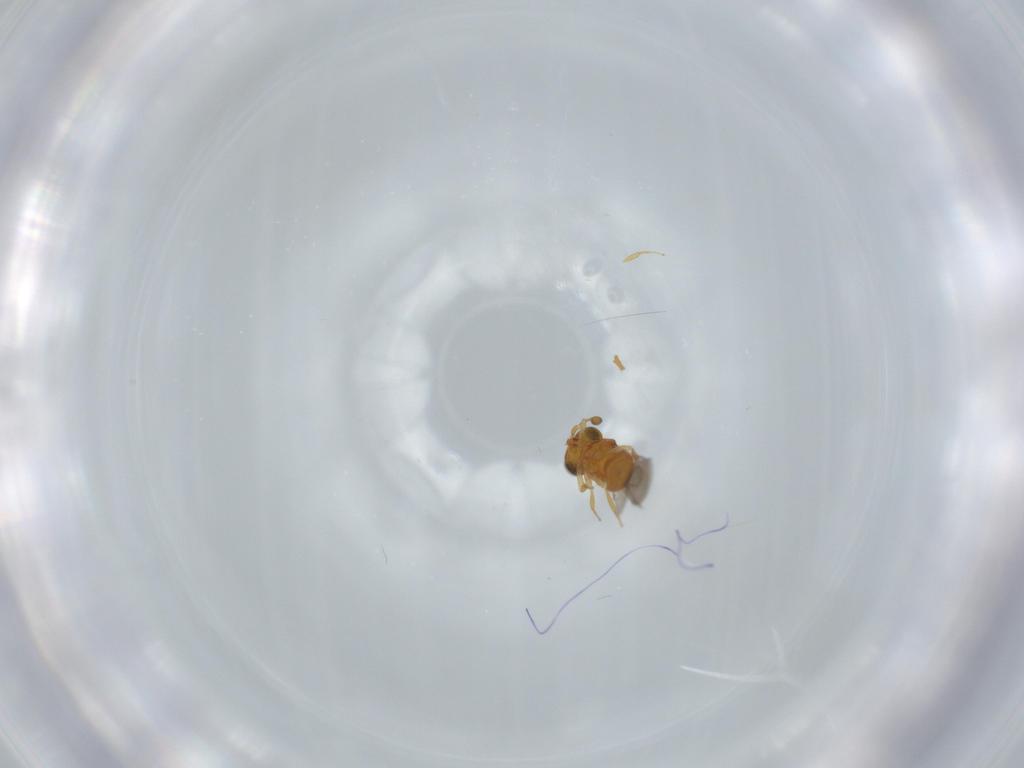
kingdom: Animalia
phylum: Arthropoda
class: Insecta
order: Hymenoptera
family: Scelionidae
